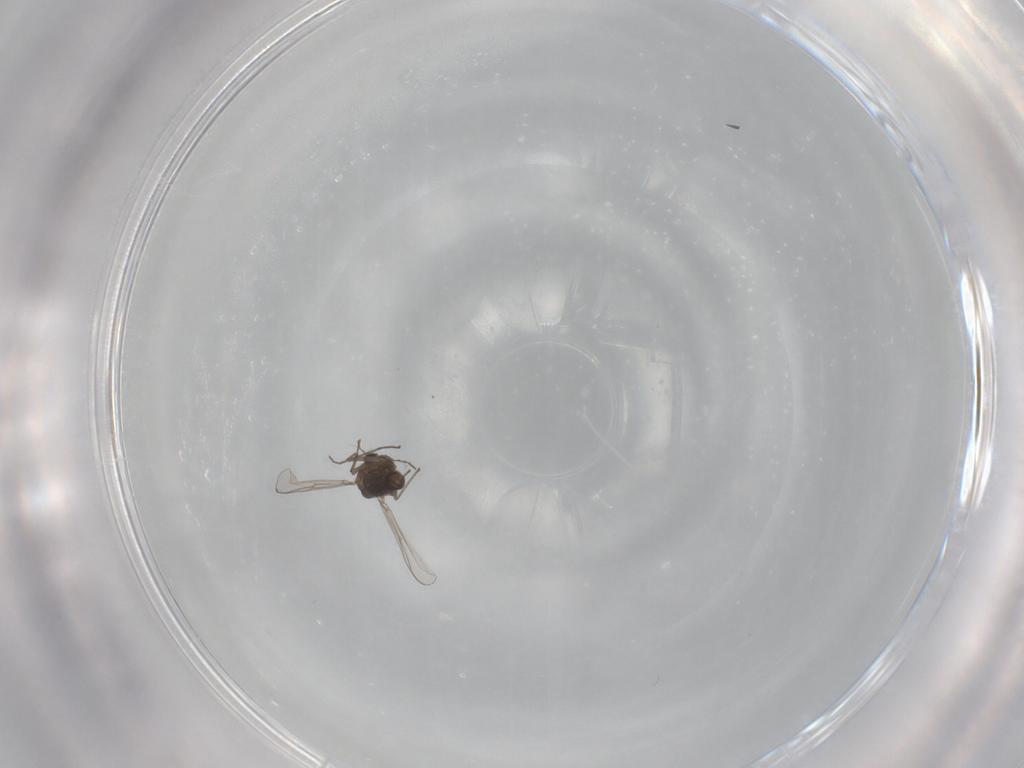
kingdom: Animalia
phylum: Arthropoda
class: Insecta
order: Diptera
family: Chironomidae
